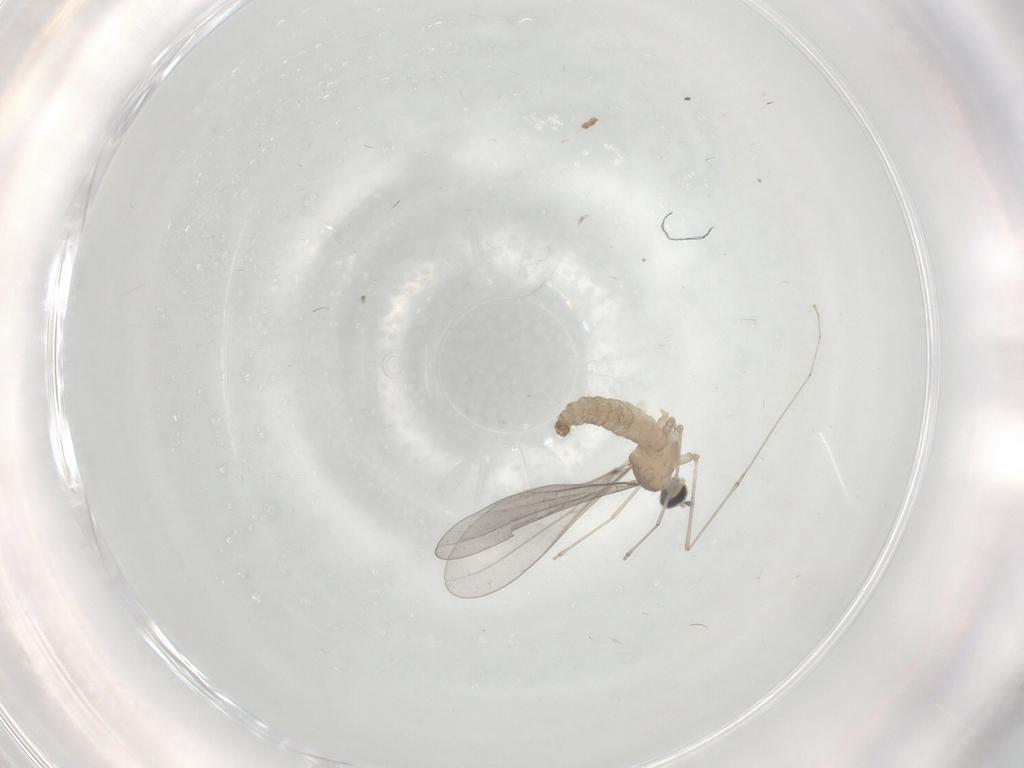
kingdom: Animalia
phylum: Arthropoda
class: Insecta
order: Diptera
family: Cecidomyiidae
